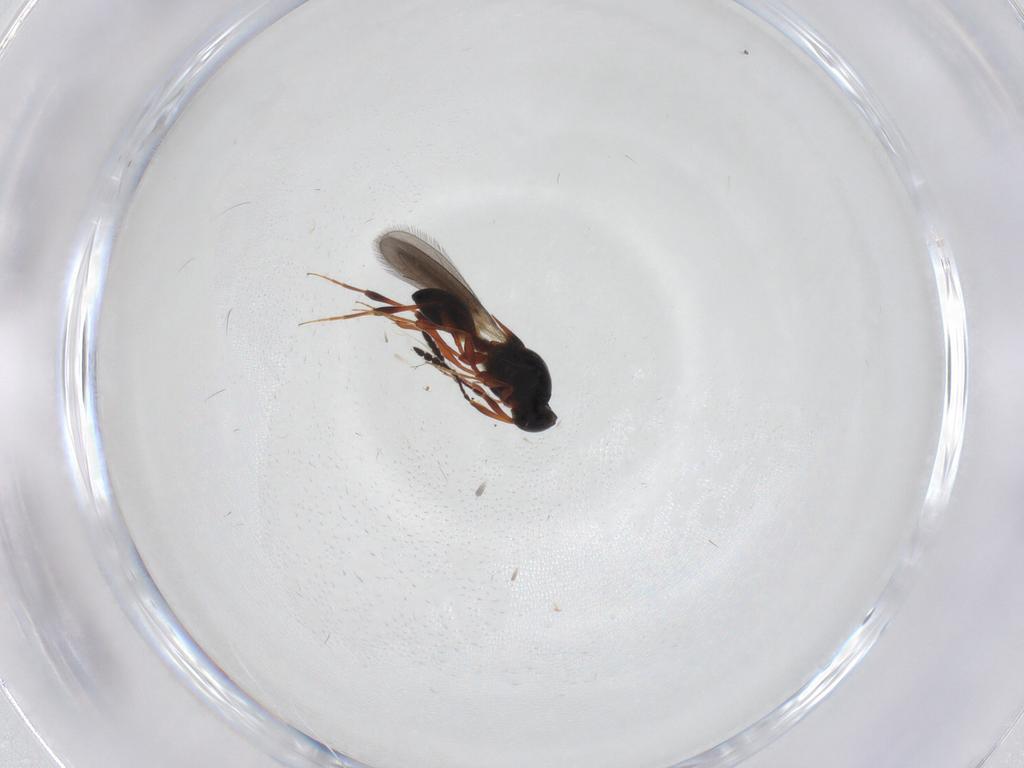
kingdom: Animalia
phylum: Arthropoda
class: Insecta
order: Hymenoptera
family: Platygastridae
